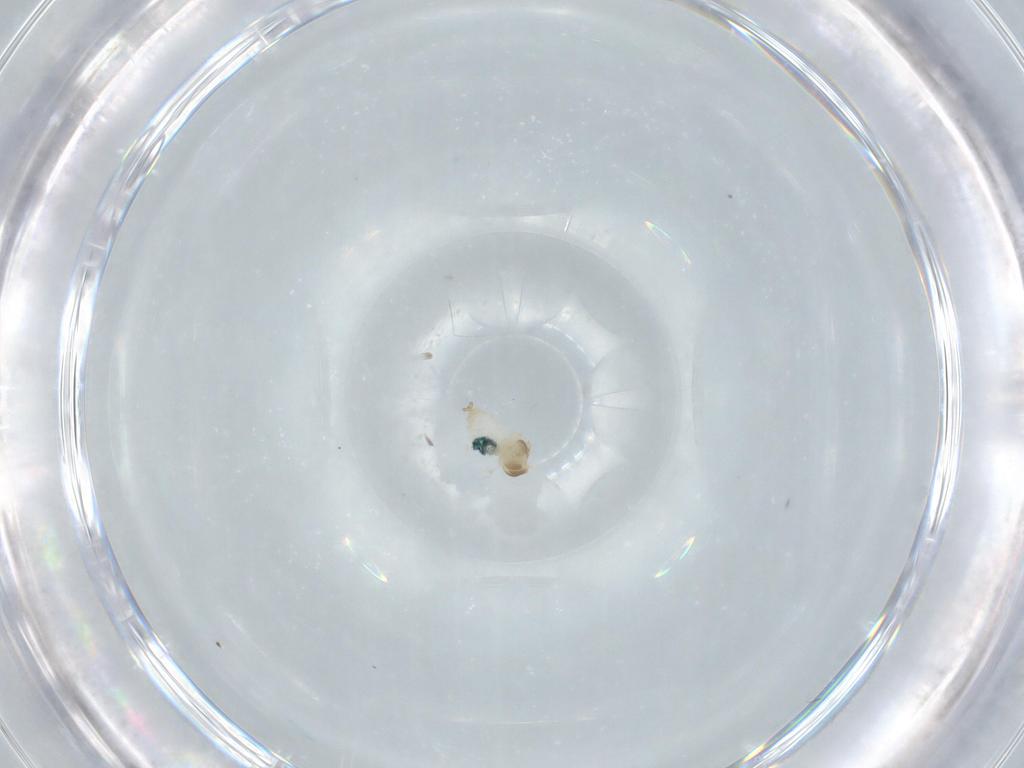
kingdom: Animalia
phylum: Arthropoda
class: Insecta
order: Diptera
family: Cecidomyiidae
